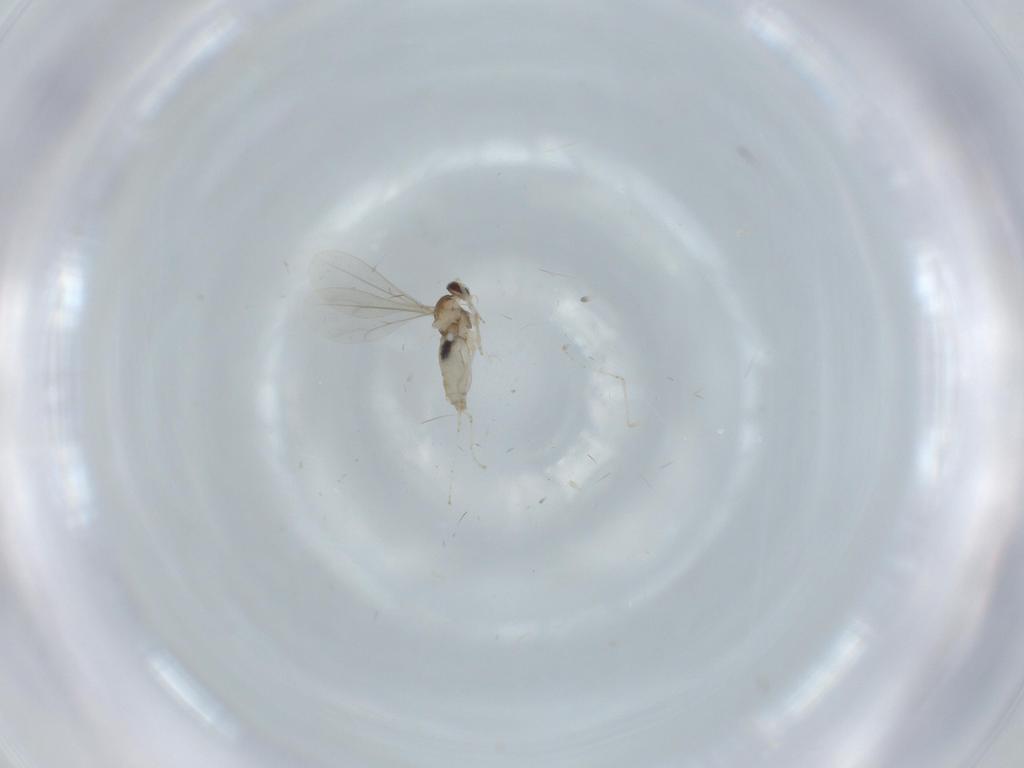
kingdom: Animalia
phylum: Arthropoda
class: Insecta
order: Diptera
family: Cecidomyiidae
